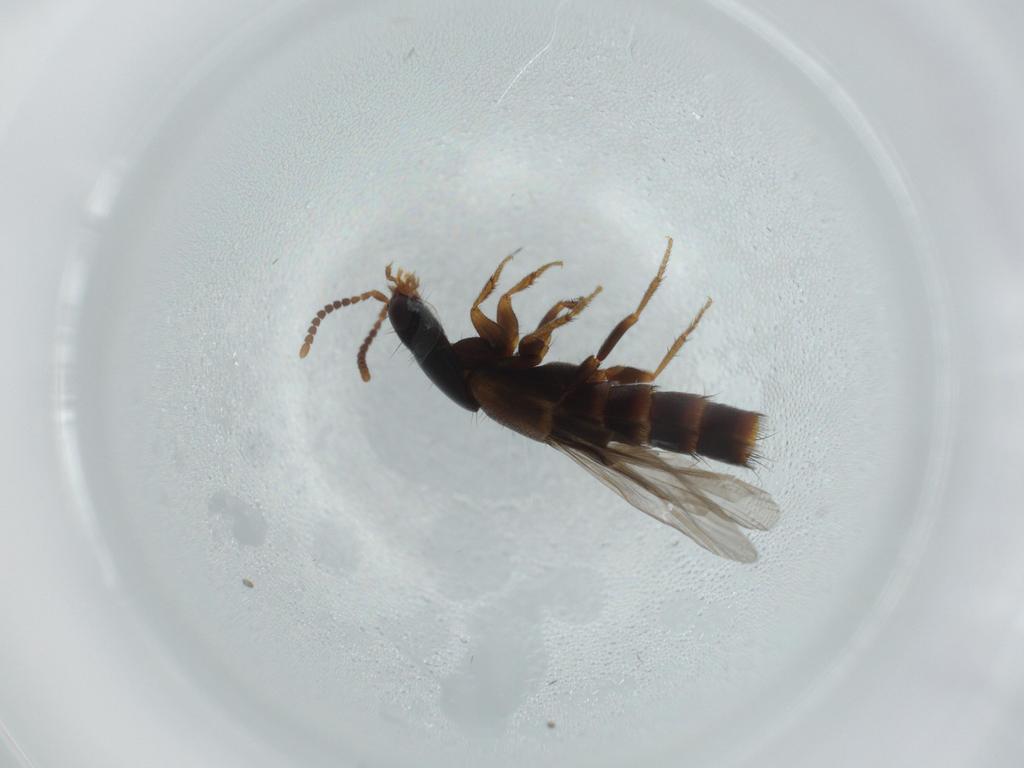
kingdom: Animalia
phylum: Arthropoda
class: Insecta
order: Coleoptera
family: Staphylinidae
